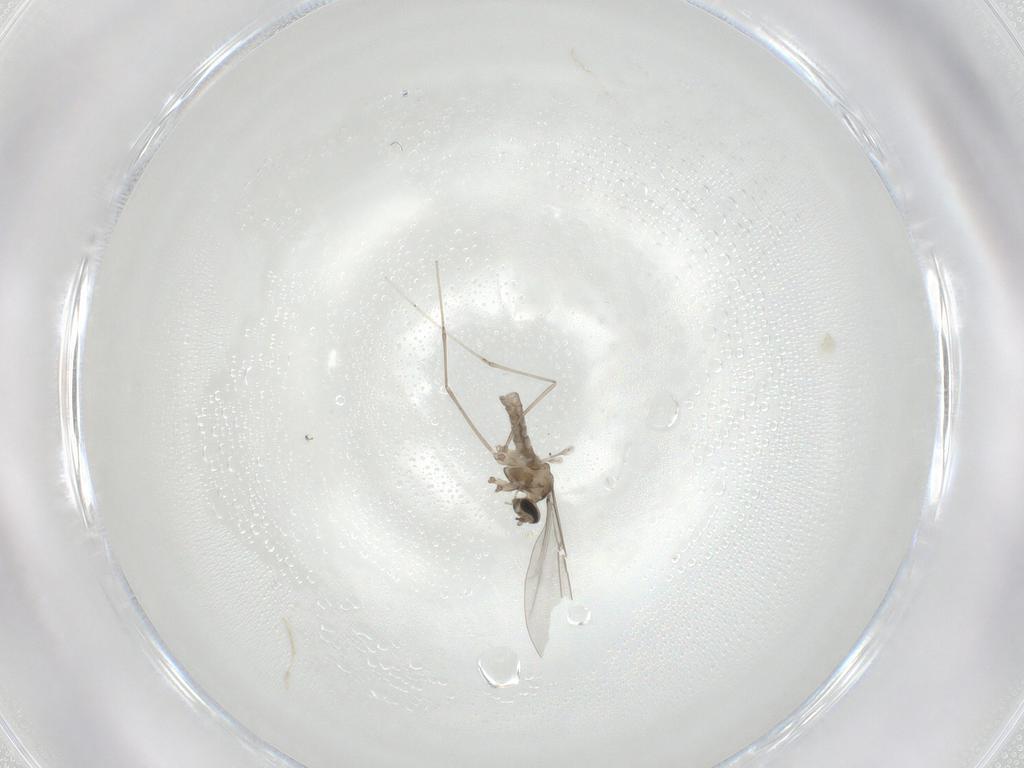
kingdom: Animalia
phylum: Arthropoda
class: Insecta
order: Diptera
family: Cecidomyiidae
